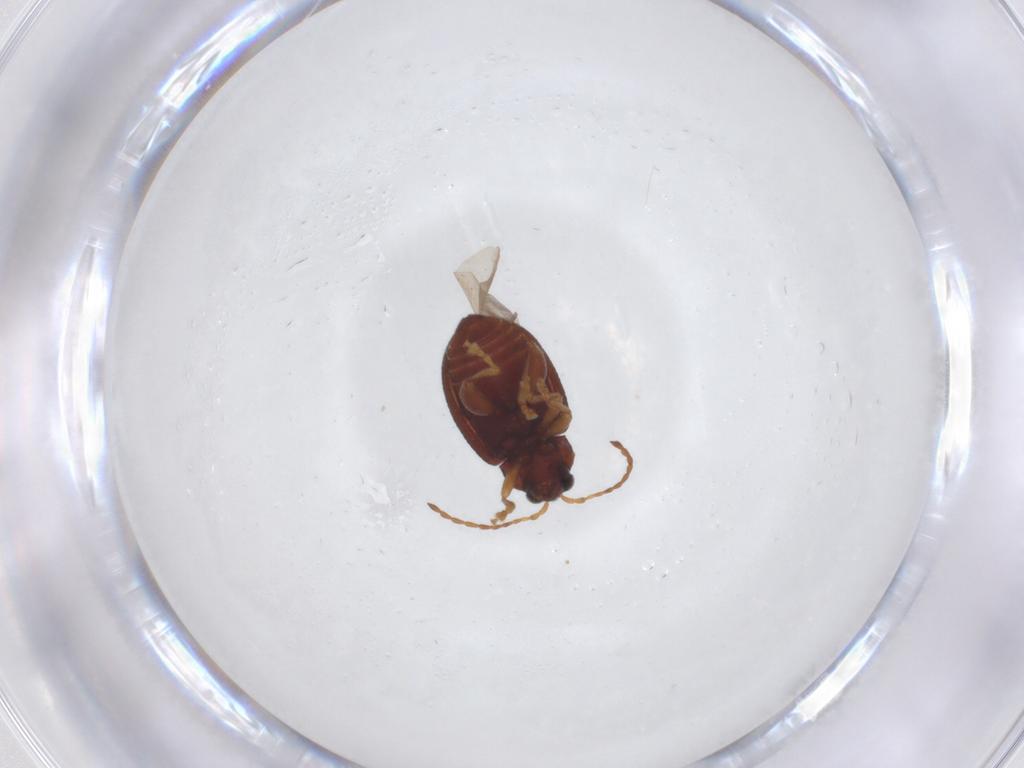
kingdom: Animalia
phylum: Arthropoda
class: Insecta
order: Coleoptera
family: Chrysomelidae
